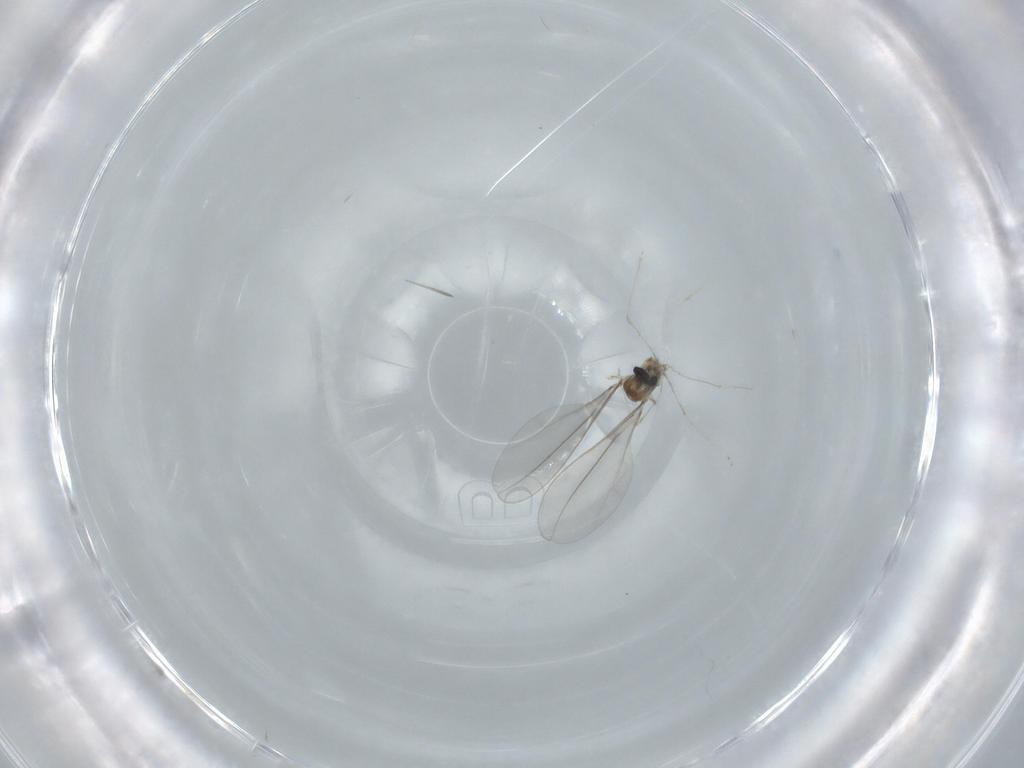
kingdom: Animalia
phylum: Arthropoda
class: Insecta
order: Diptera
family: Cecidomyiidae
